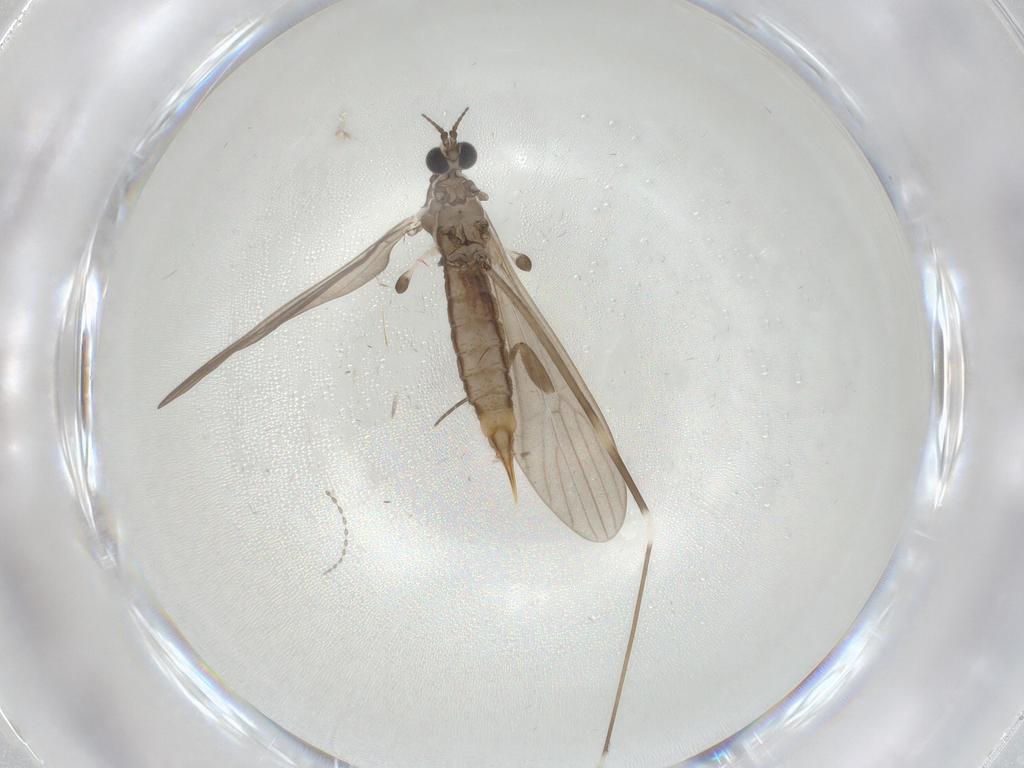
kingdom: Animalia
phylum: Arthropoda
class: Insecta
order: Diptera
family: Limoniidae
